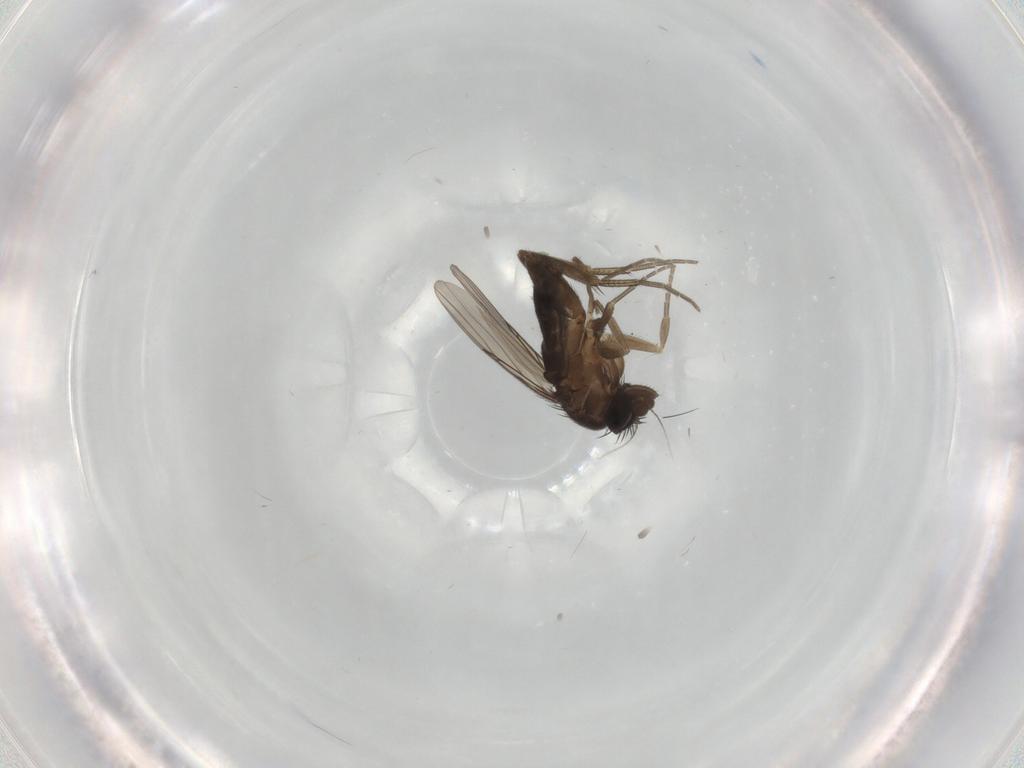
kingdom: Animalia
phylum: Arthropoda
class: Insecta
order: Diptera
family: Phoridae
